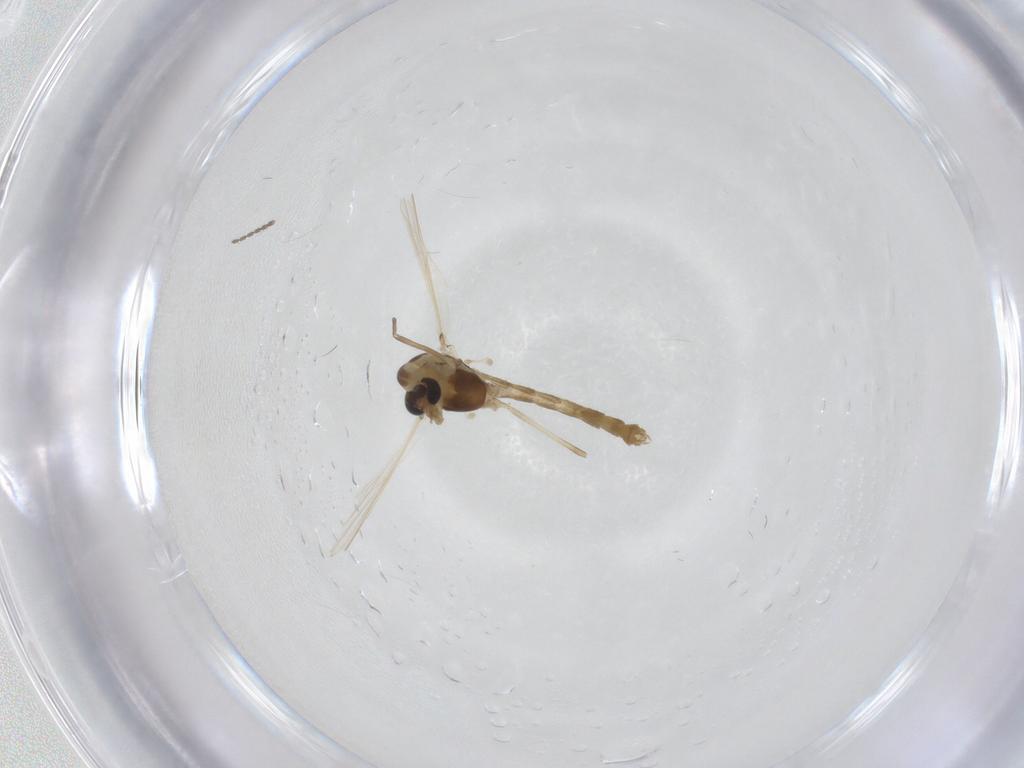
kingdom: Animalia
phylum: Arthropoda
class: Insecta
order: Diptera
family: Chironomidae
